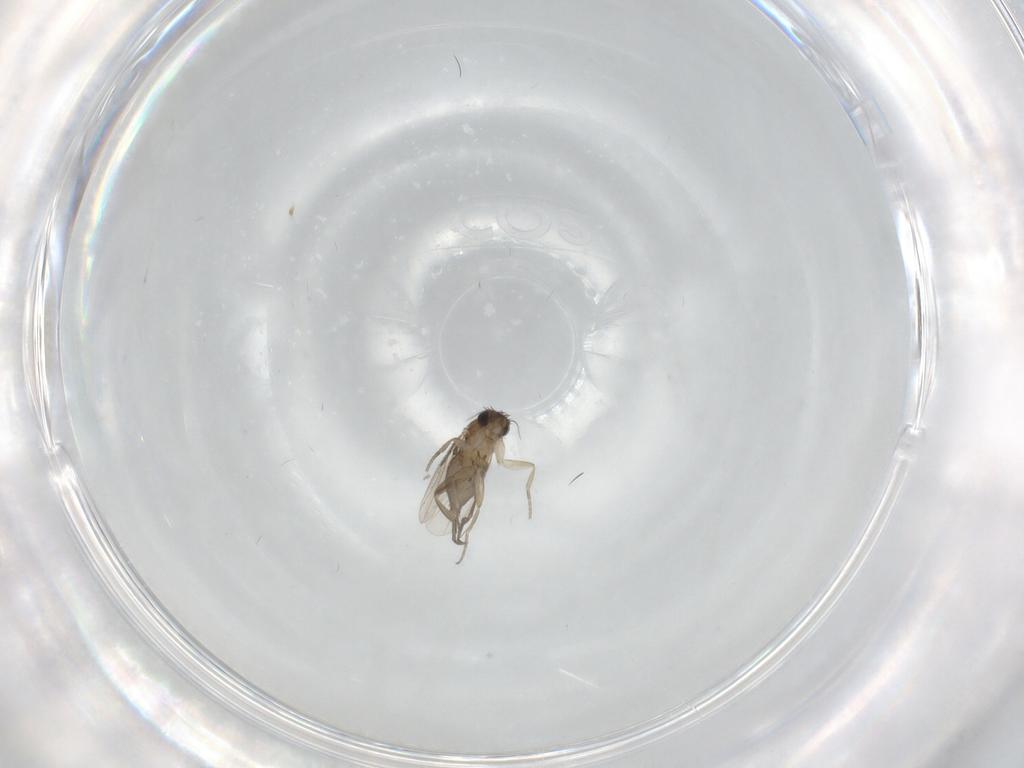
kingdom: Animalia
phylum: Arthropoda
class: Insecta
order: Diptera
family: Phoridae
